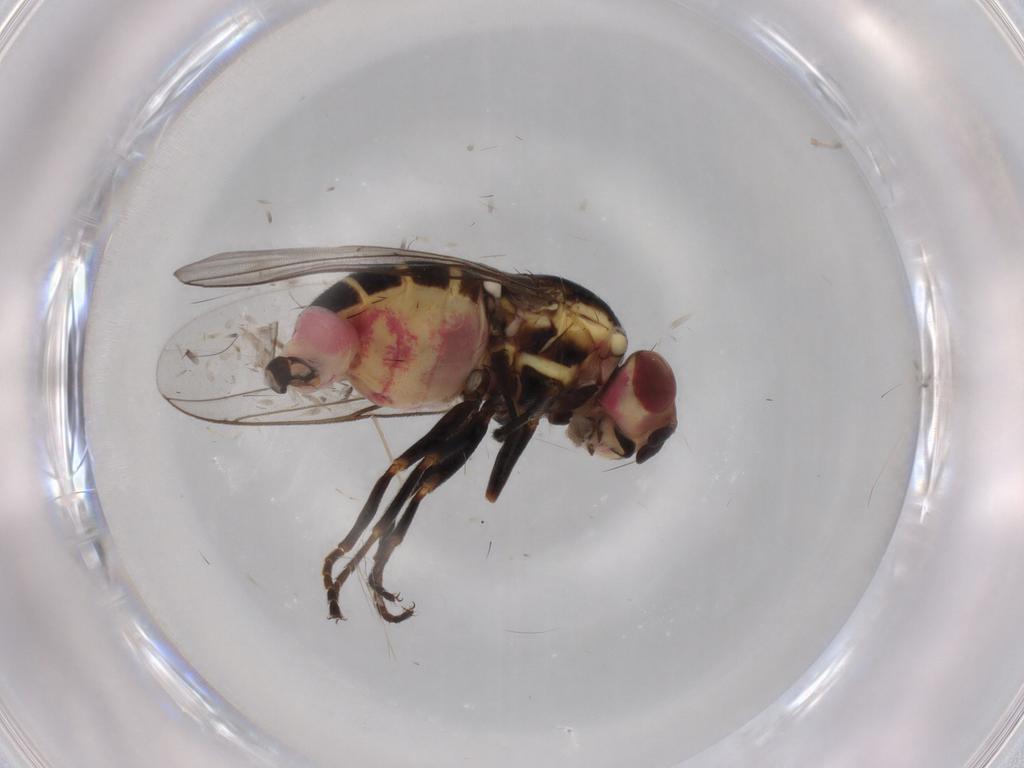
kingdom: Animalia
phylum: Arthropoda
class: Insecta
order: Diptera
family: Chloropidae
